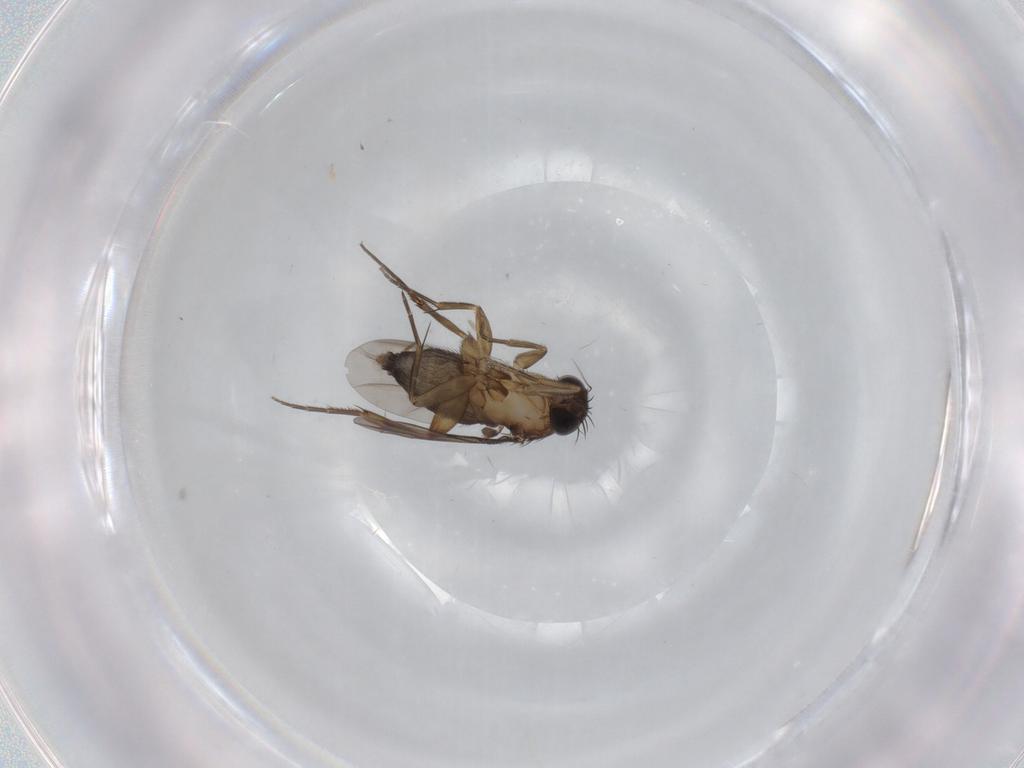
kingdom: Animalia
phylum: Arthropoda
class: Insecta
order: Diptera
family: Phoridae
